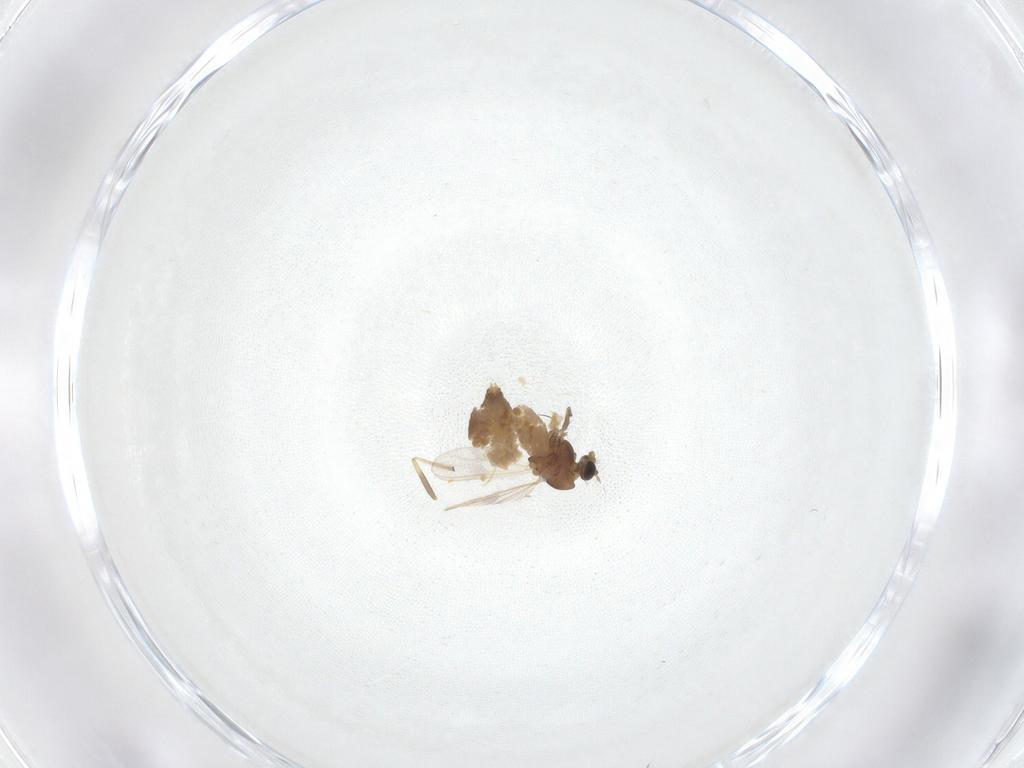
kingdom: Animalia
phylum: Arthropoda
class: Insecta
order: Diptera
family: Chironomidae
